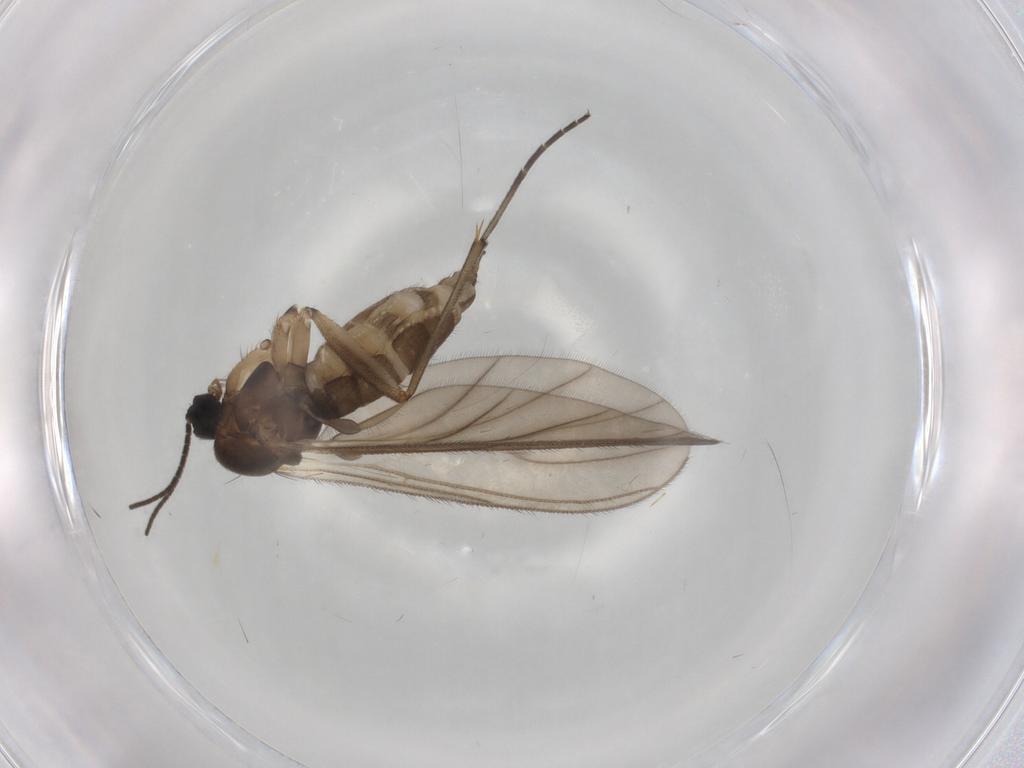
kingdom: Animalia
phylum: Arthropoda
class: Insecta
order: Diptera
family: Sciaridae
